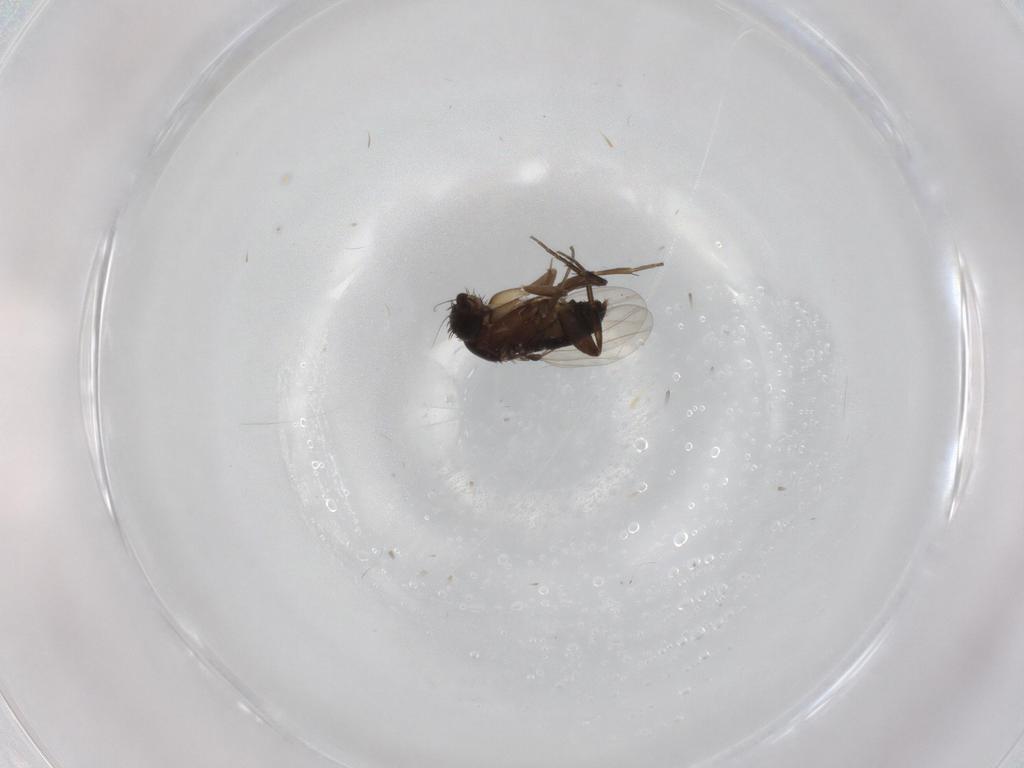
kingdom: Animalia
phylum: Arthropoda
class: Insecta
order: Diptera
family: Phoridae
